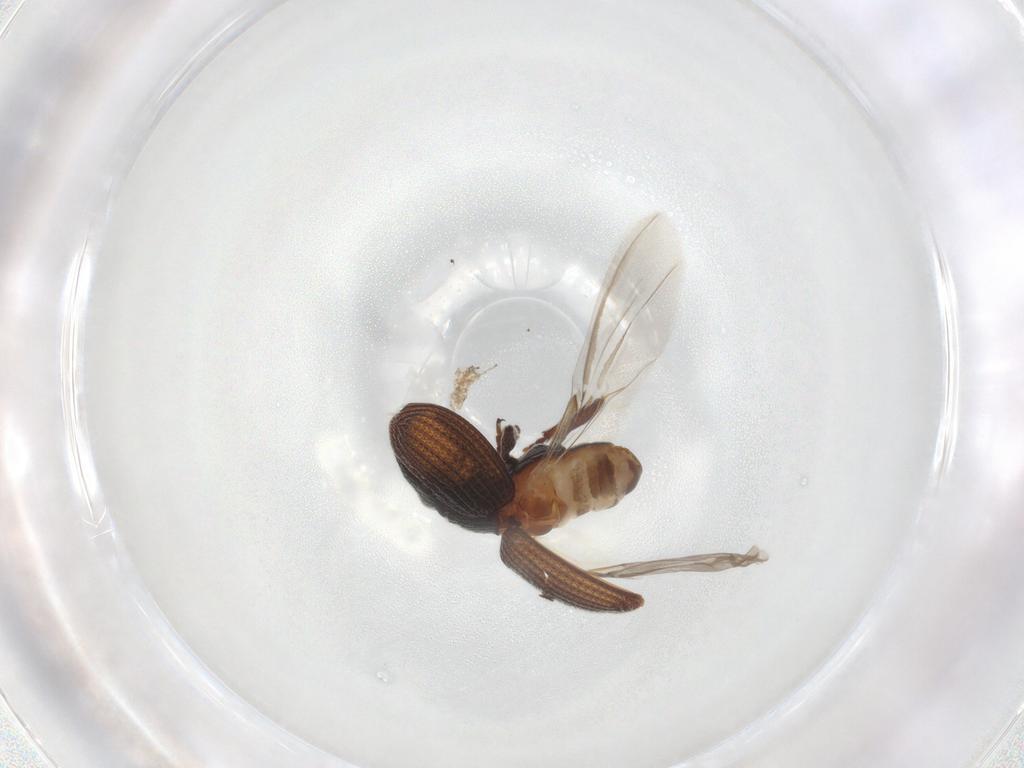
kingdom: Animalia
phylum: Arthropoda
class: Insecta
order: Coleoptera
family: Brentidae
